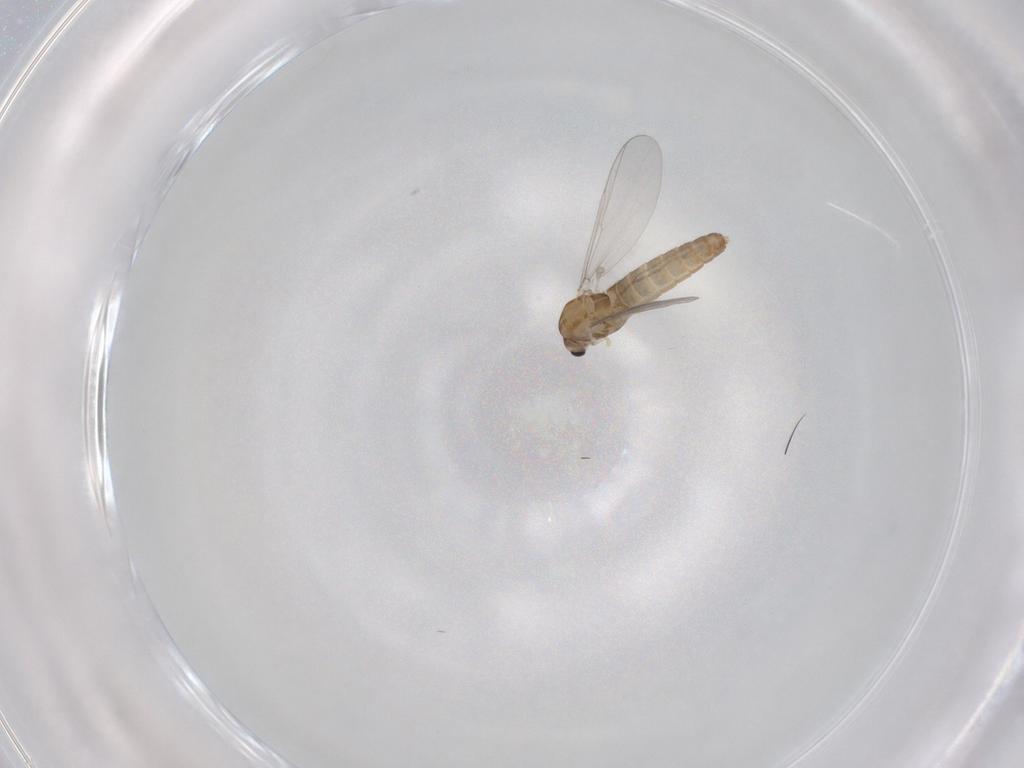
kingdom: Animalia
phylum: Arthropoda
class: Insecta
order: Diptera
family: Chironomidae
